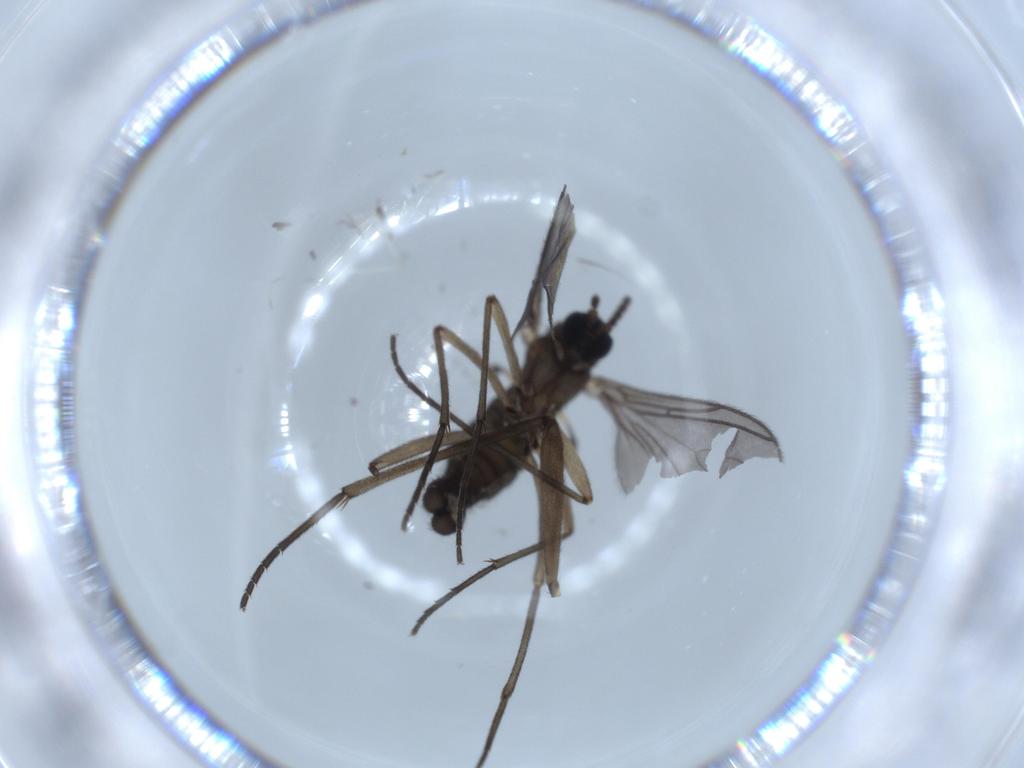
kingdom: Animalia
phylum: Arthropoda
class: Insecta
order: Diptera
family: Sciaridae
